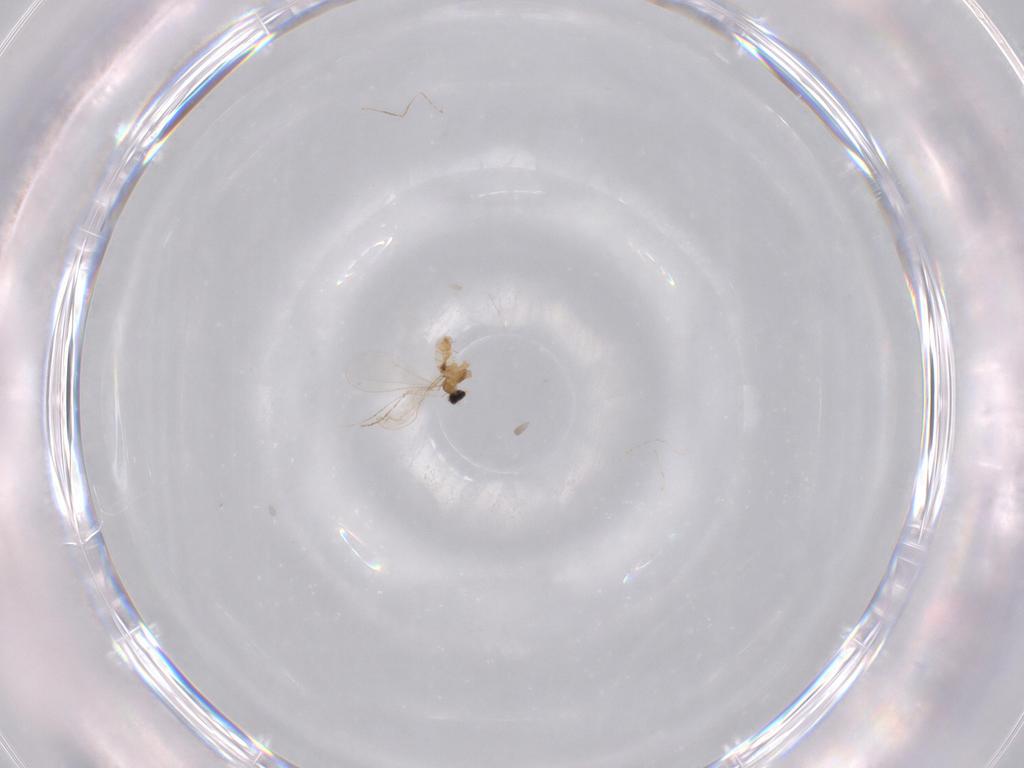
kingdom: Animalia
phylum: Arthropoda
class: Insecta
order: Diptera
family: Cecidomyiidae
